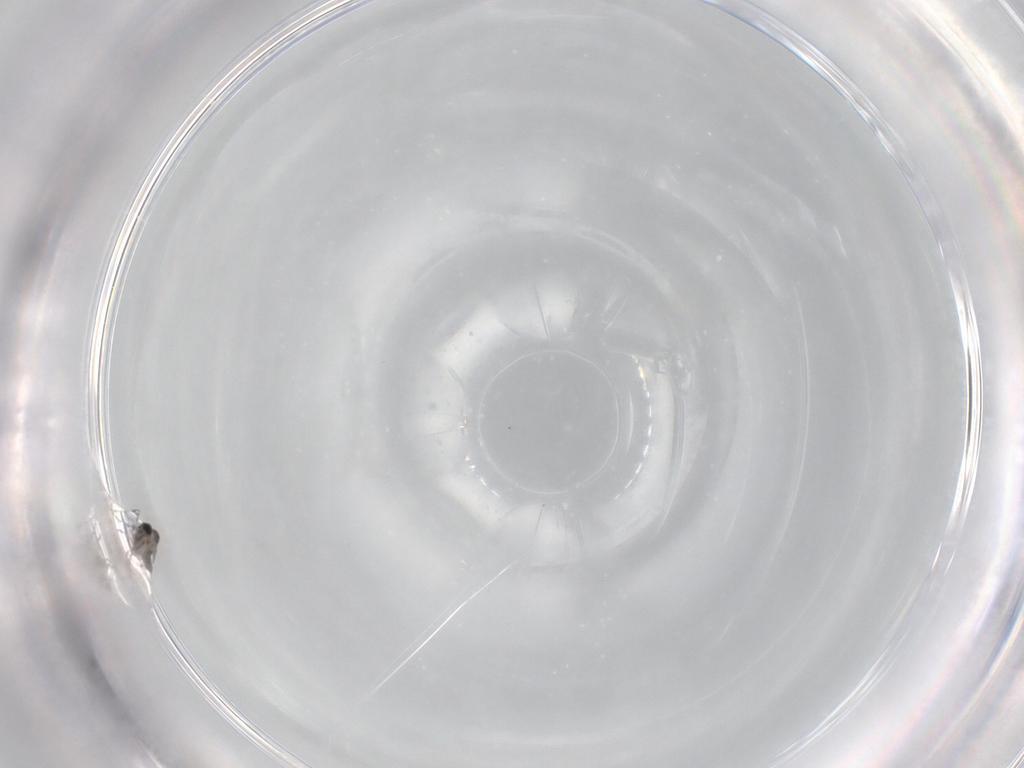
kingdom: Animalia
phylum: Arthropoda
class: Insecta
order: Diptera
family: Cecidomyiidae
